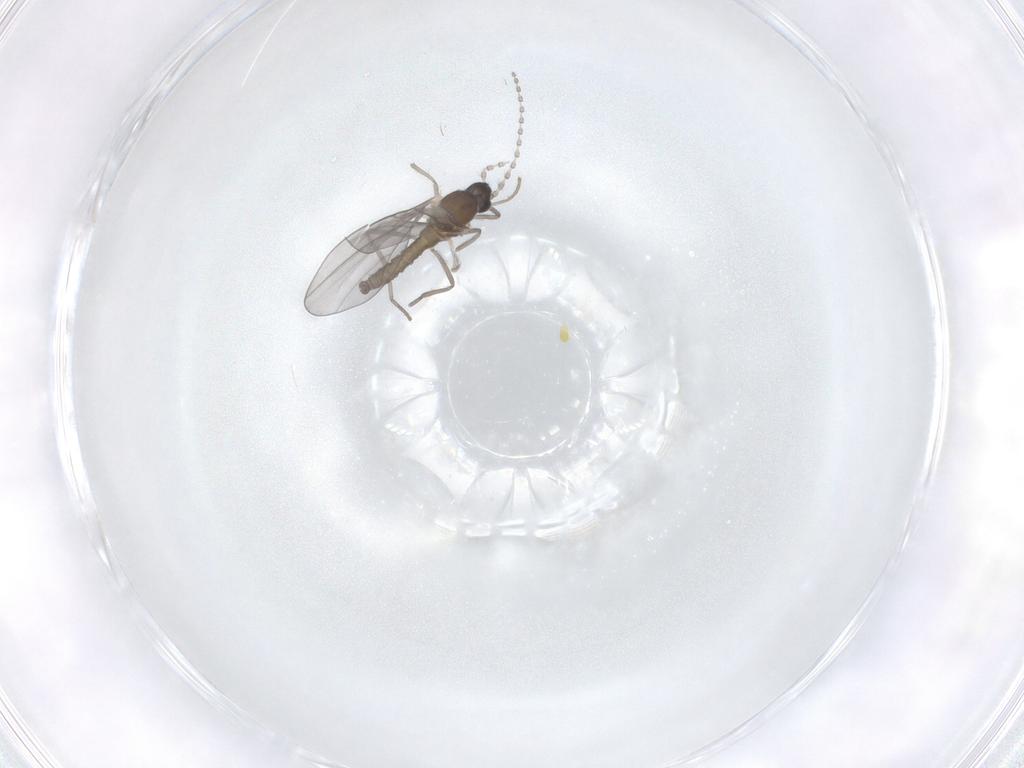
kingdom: Animalia
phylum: Arthropoda
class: Insecta
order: Diptera
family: Cecidomyiidae
